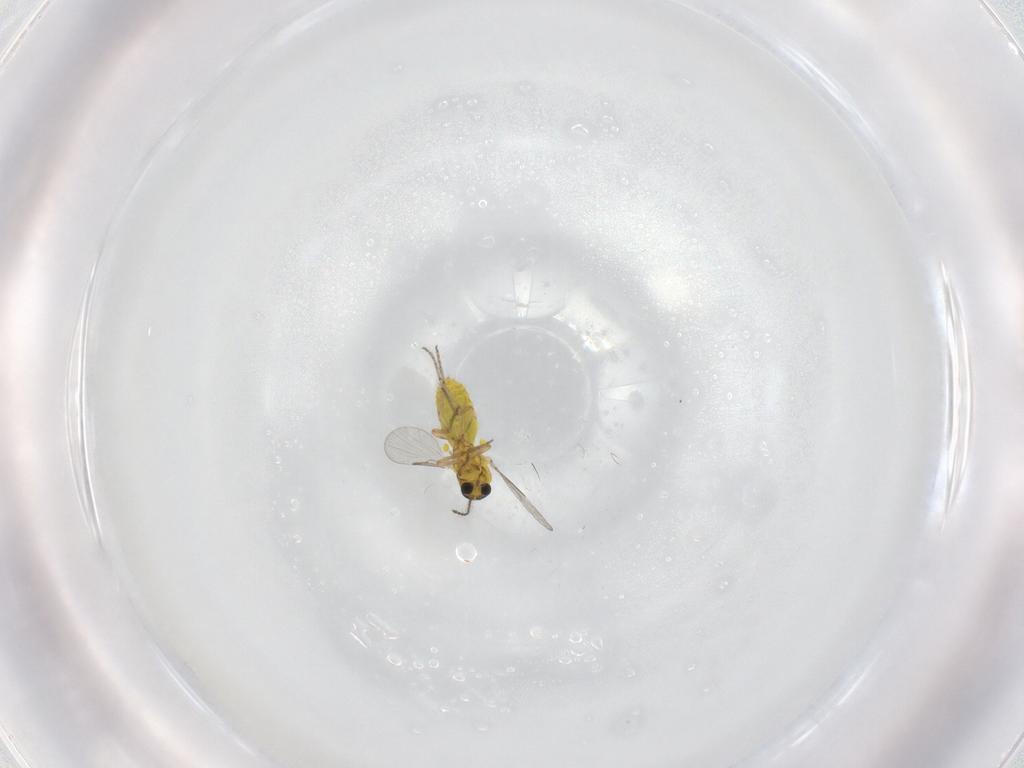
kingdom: Animalia
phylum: Arthropoda
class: Insecta
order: Diptera
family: Ceratopogonidae
